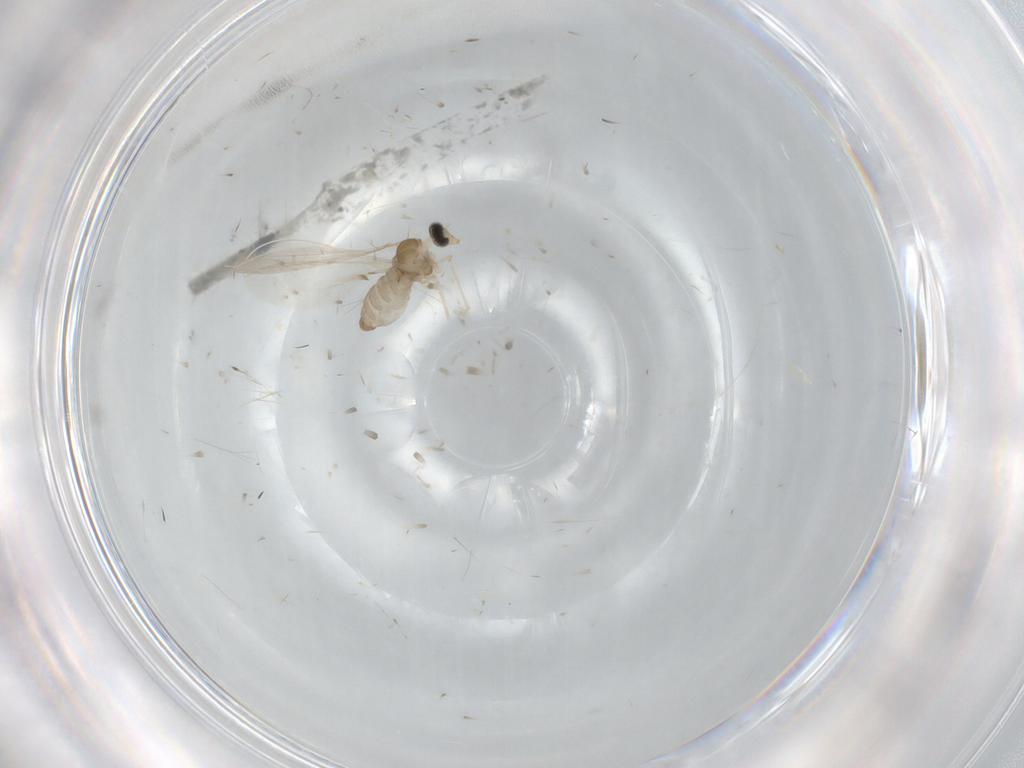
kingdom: Animalia
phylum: Arthropoda
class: Insecta
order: Diptera
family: Cecidomyiidae
